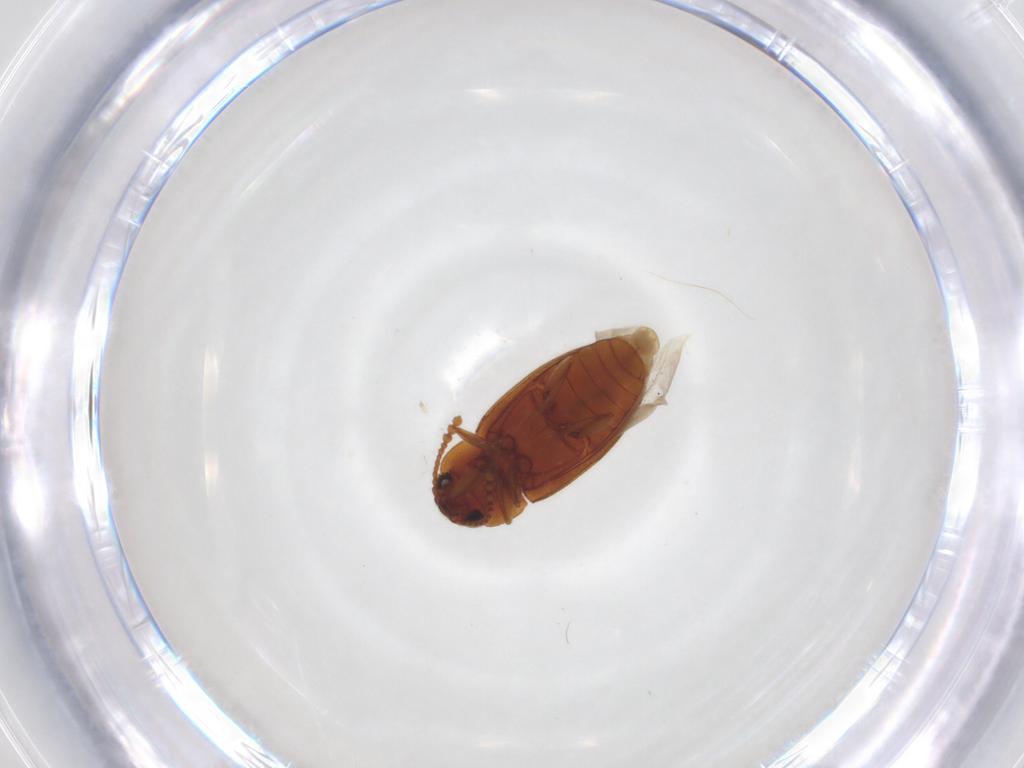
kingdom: Animalia
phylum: Arthropoda
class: Insecta
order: Coleoptera
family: Erotylidae
